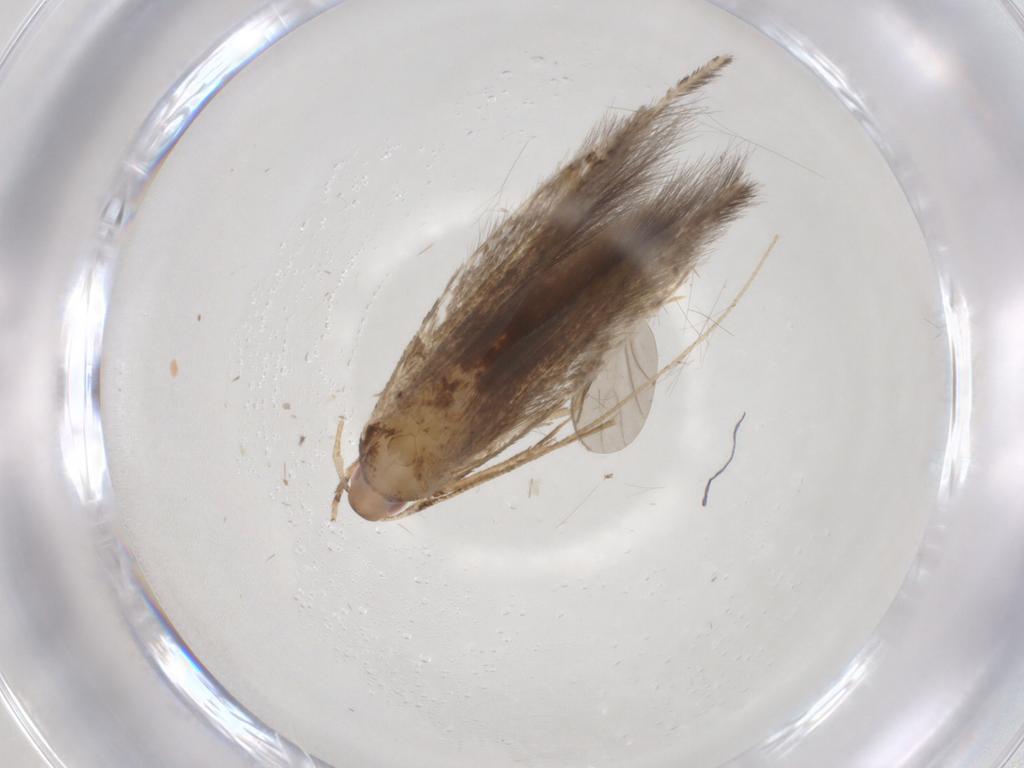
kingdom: Animalia
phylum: Arthropoda
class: Insecta
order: Lepidoptera
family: Cosmopterigidae
